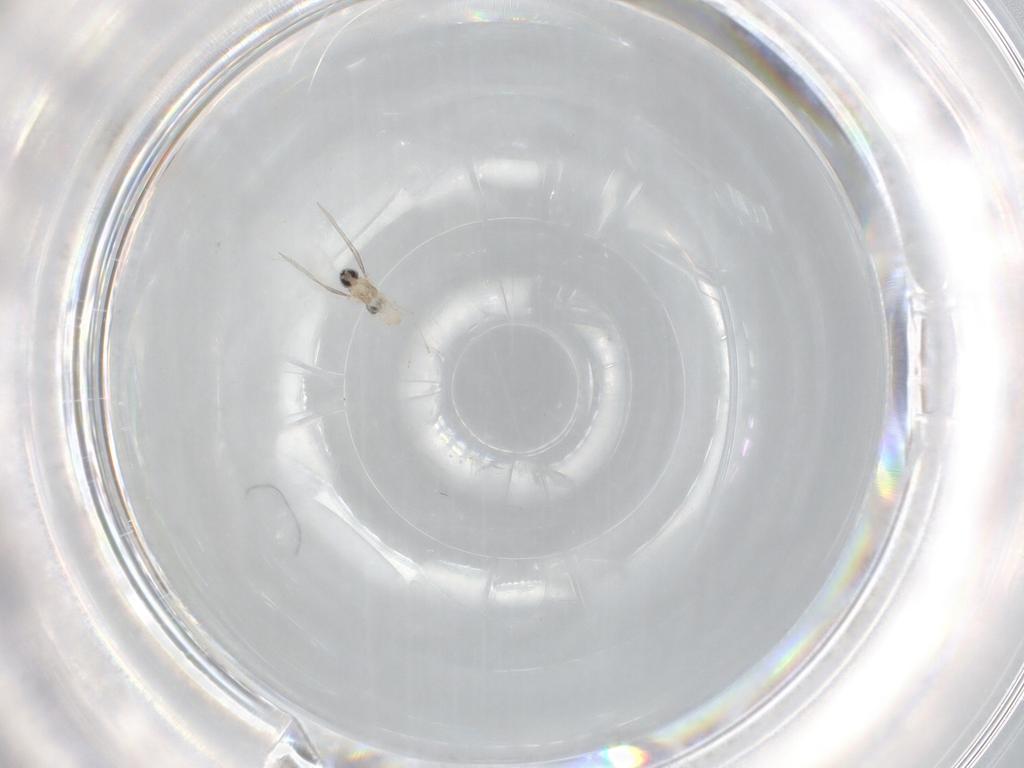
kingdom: Animalia
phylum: Arthropoda
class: Insecta
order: Diptera
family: Cecidomyiidae
